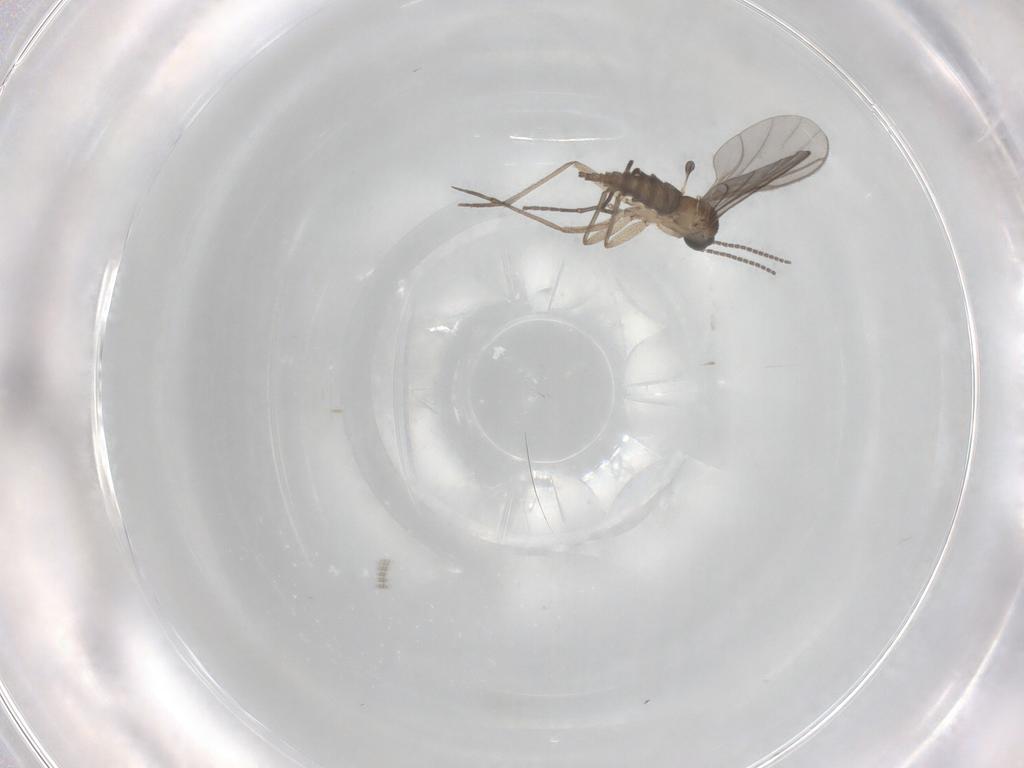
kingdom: Animalia
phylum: Arthropoda
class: Insecta
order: Diptera
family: Sciaridae
